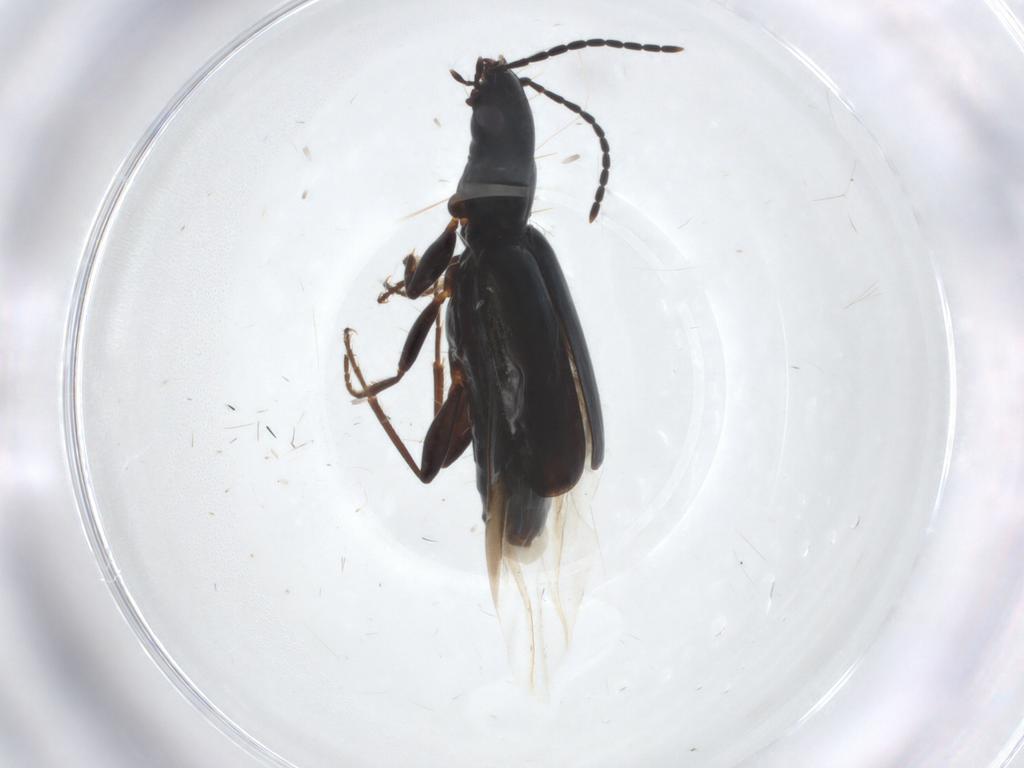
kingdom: Animalia
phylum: Arthropoda
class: Insecta
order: Coleoptera
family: Carabidae
